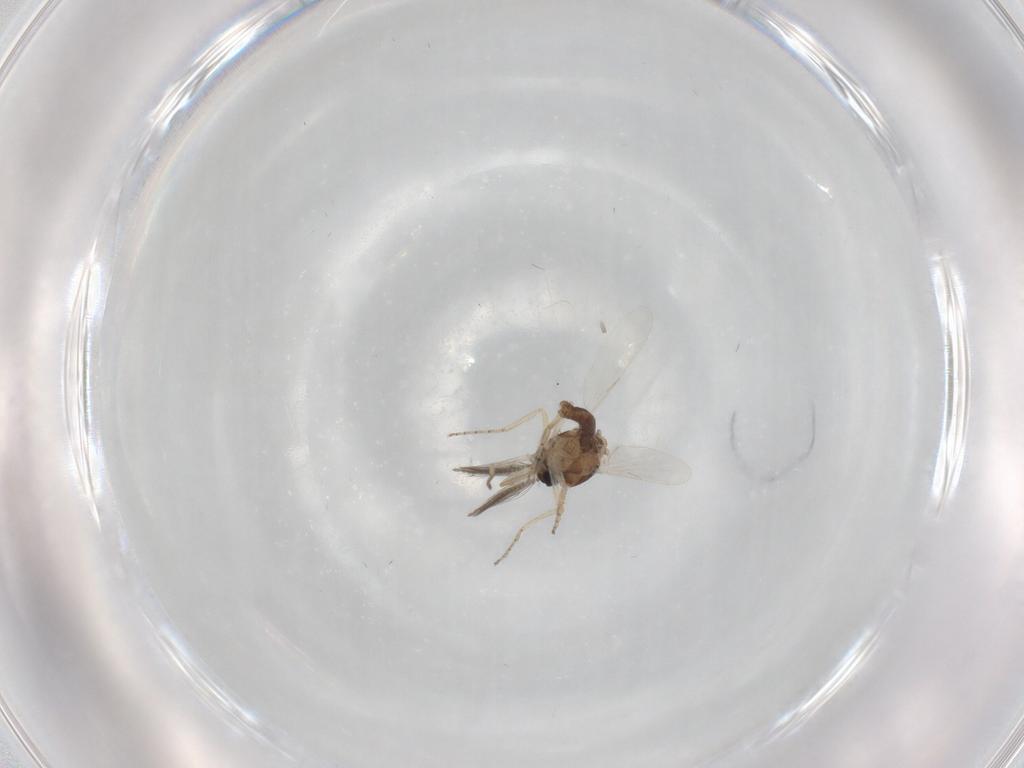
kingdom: Animalia
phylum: Arthropoda
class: Insecta
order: Diptera
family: Ceratopogonidae
